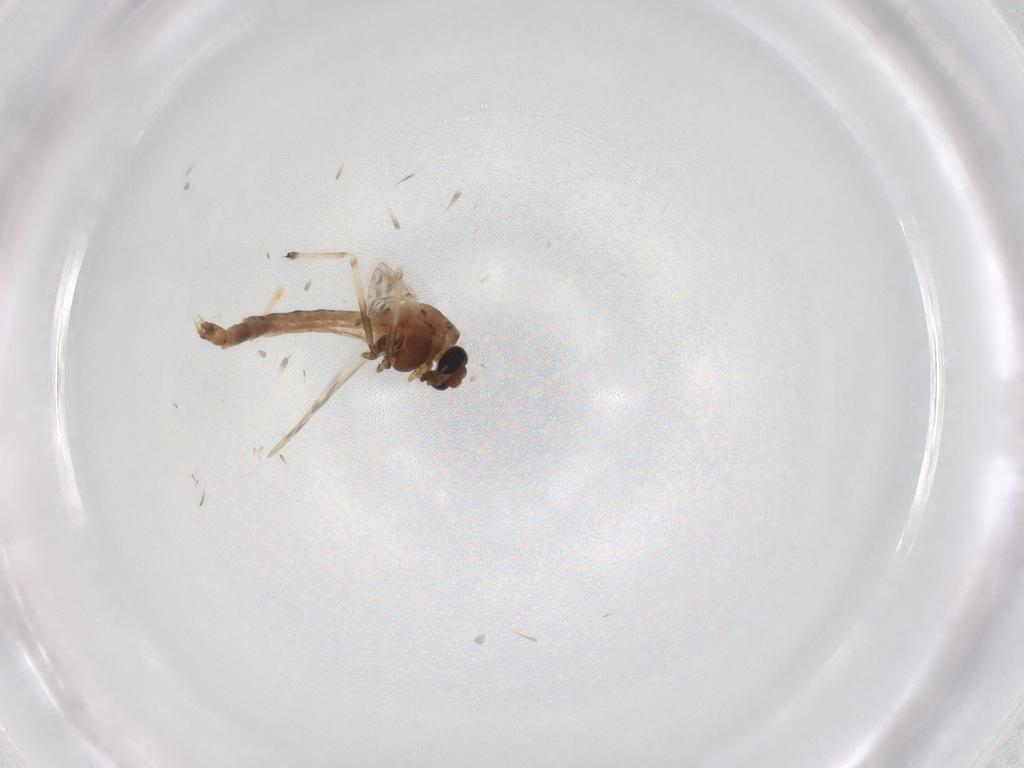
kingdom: Animalia
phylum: Arthropoda
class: Insecta
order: Diptera
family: Chironomidae
